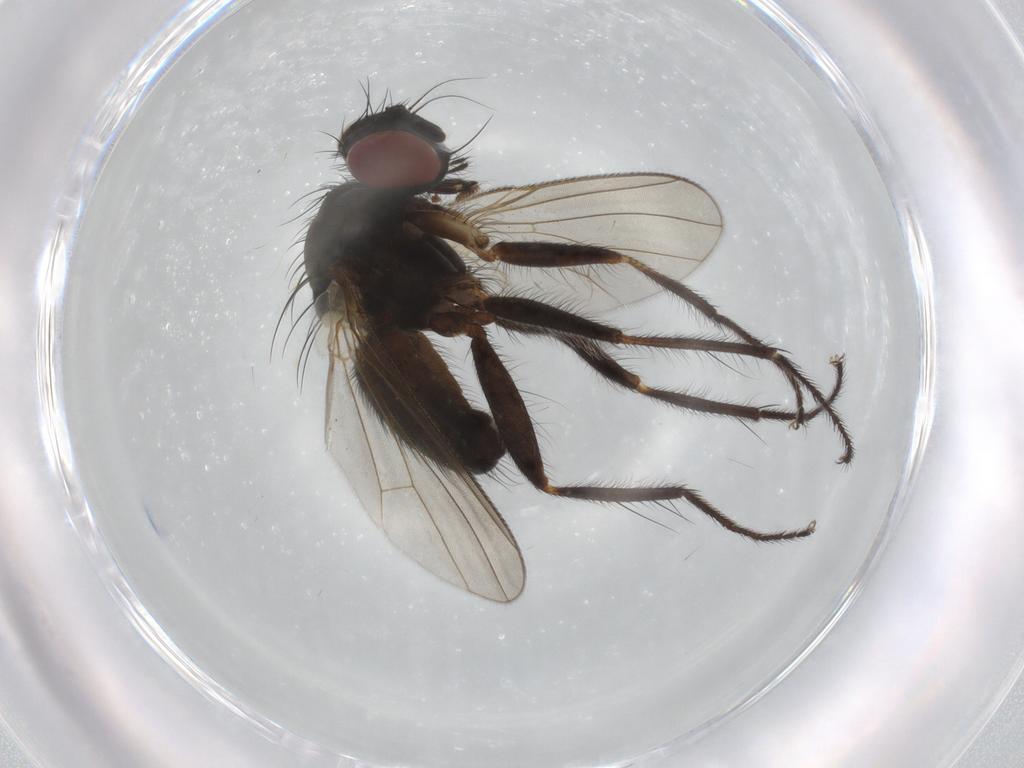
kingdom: Animalia
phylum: Arthropoda
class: Insecta
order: Diptera
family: Muscidae
